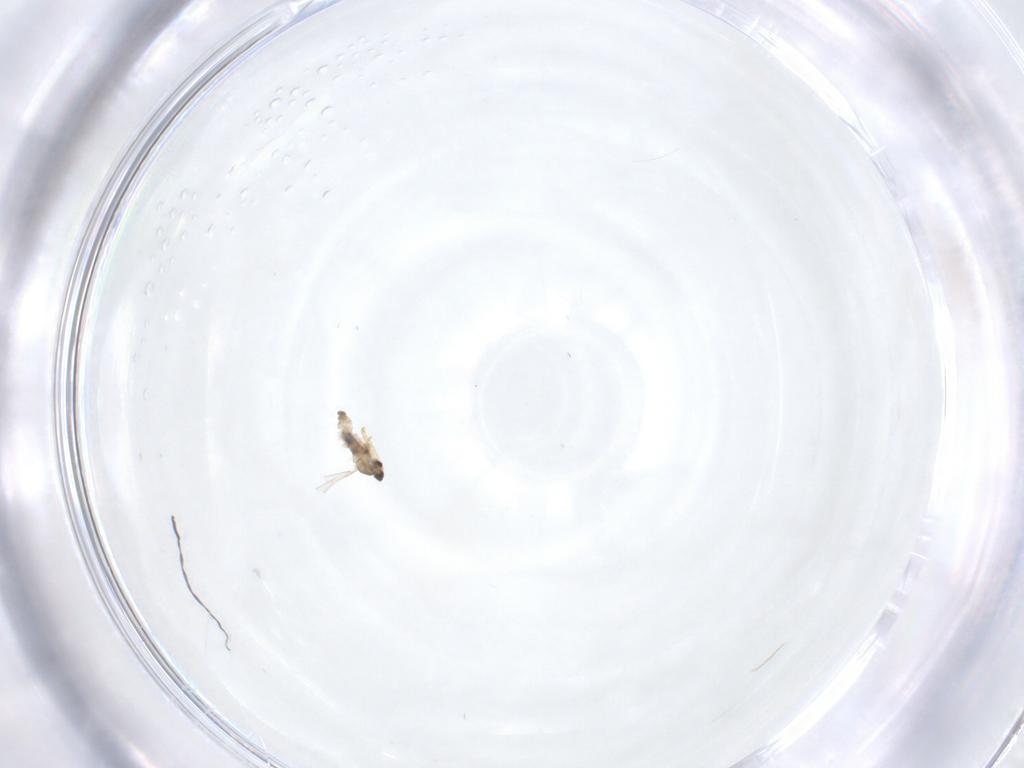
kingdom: Animalia
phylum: Arthropoda
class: Insecta
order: Diptera
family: Ceratopogonidae
